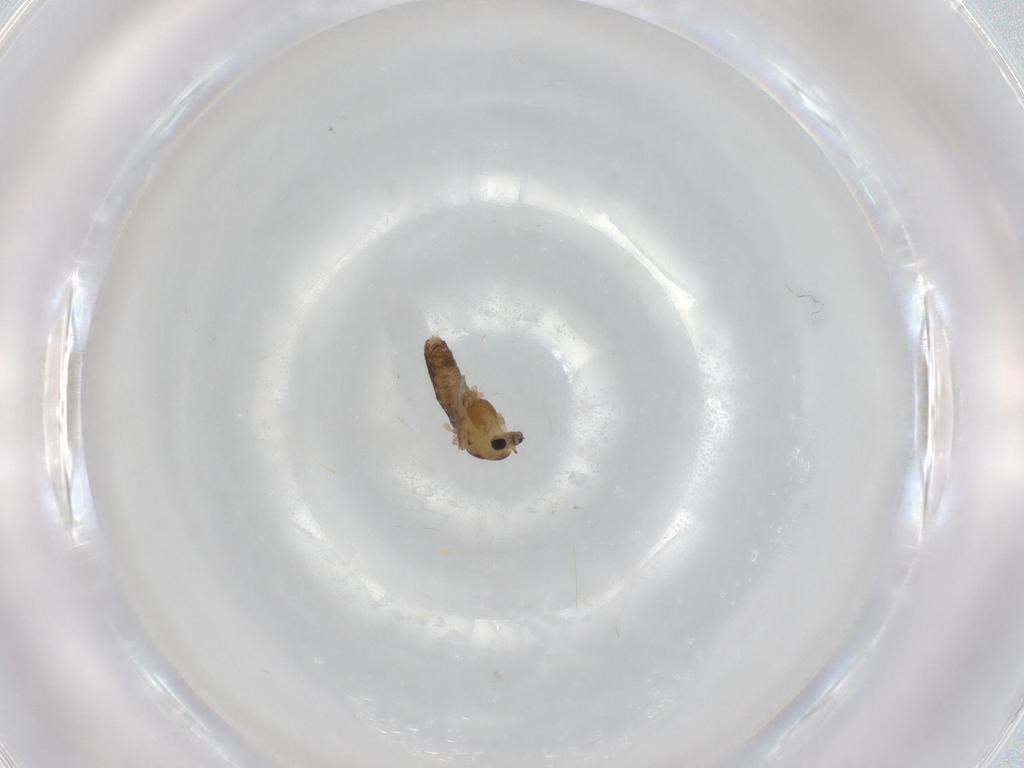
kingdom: Animalia
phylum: Arthropoda
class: Insecta
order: Diptera
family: Chironomidae
